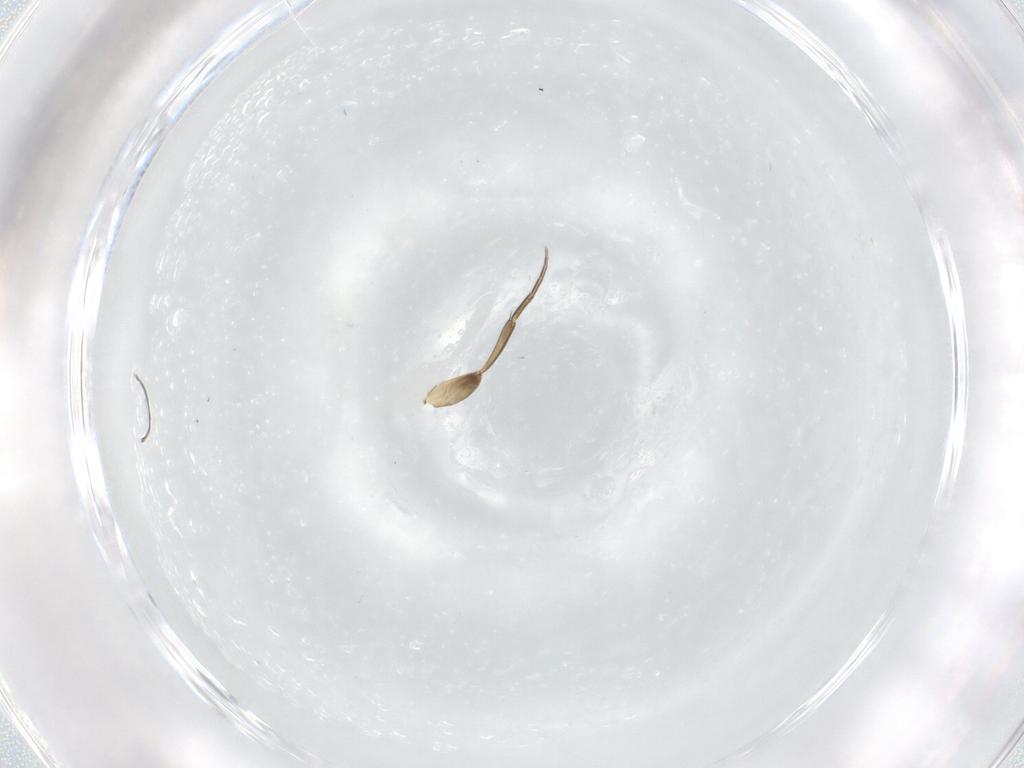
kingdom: Animalia
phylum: Arthropoda
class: Insecta
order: Diptera
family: Phoridae
